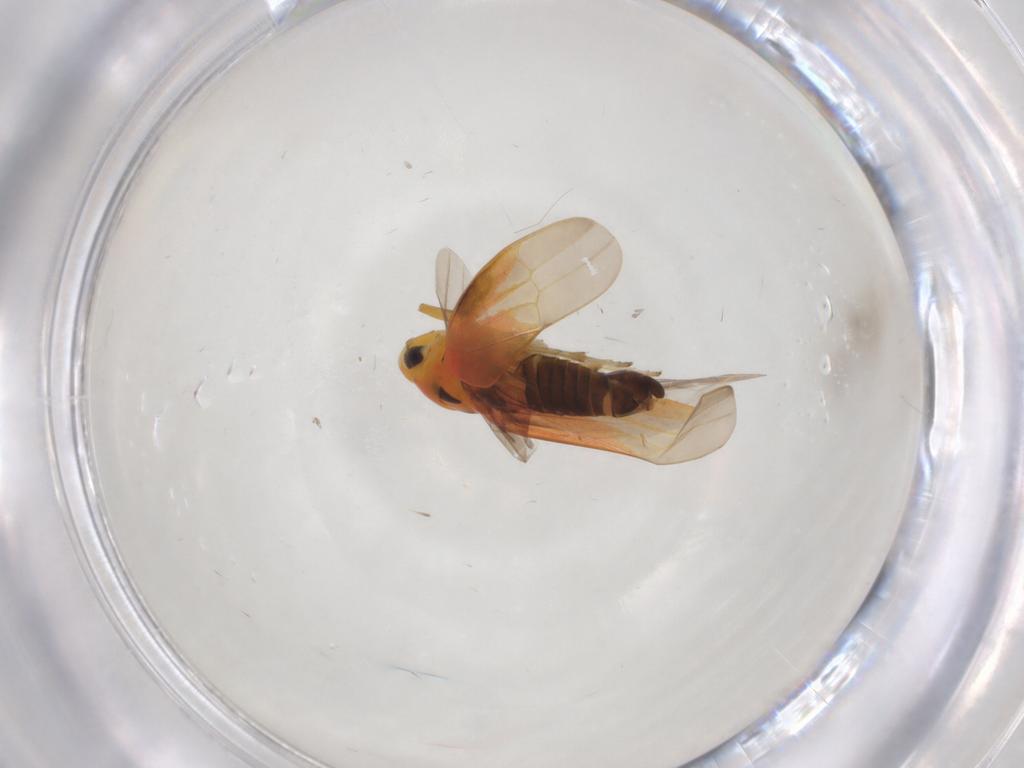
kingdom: Animalia
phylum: Arthropoda
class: Insecta
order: Hemiptera
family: Cicadellidae
